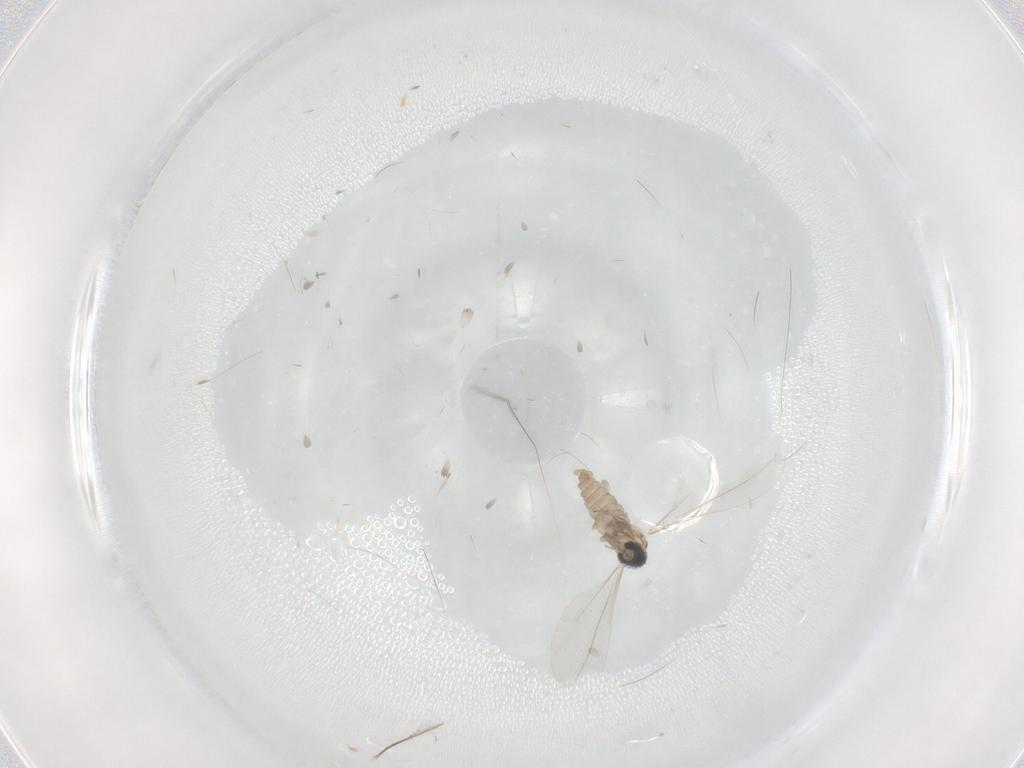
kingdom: Animalia
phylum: Arthropoda
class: Insecta
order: Diptera
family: Cecidomyiidae
